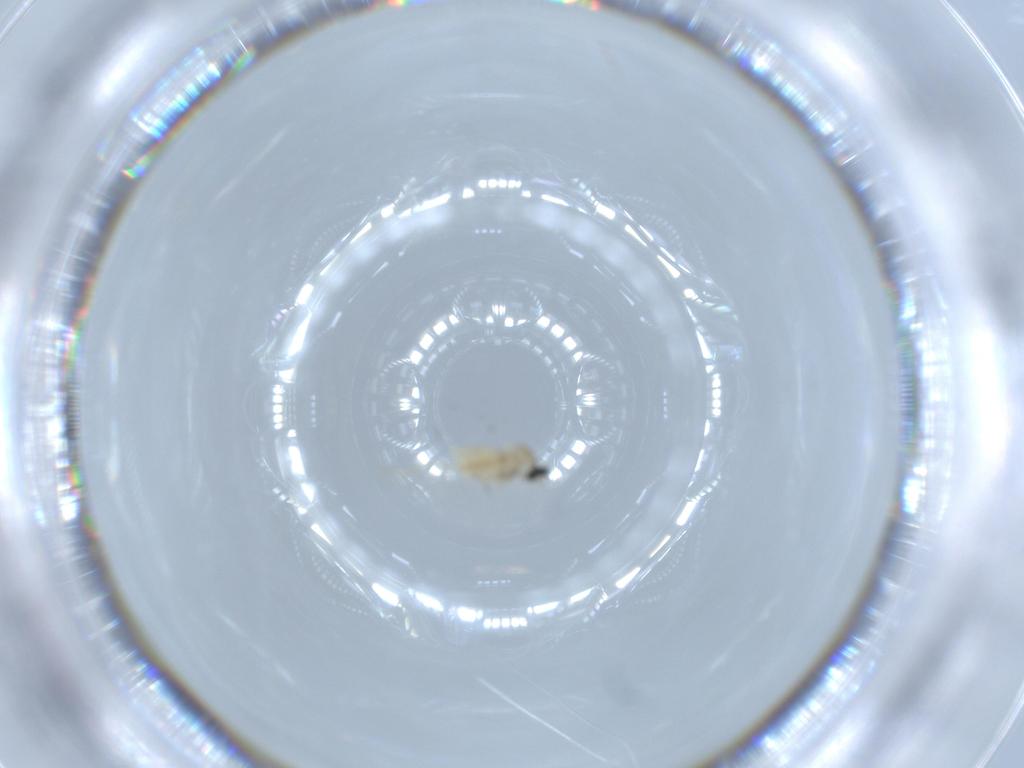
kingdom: Animalia
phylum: Arthropoda
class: Insecta
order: Diptera
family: Cecidomyiidae
